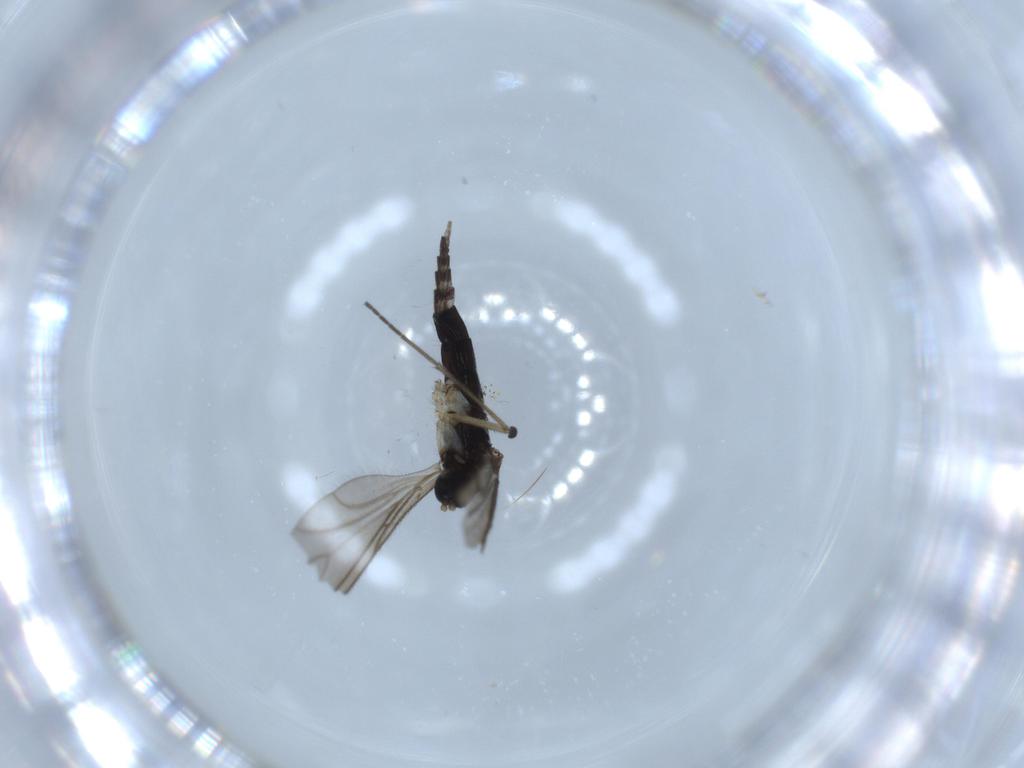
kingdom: Animalia
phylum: Arthropoda
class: Insecta
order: Diptera
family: Sciaridae
